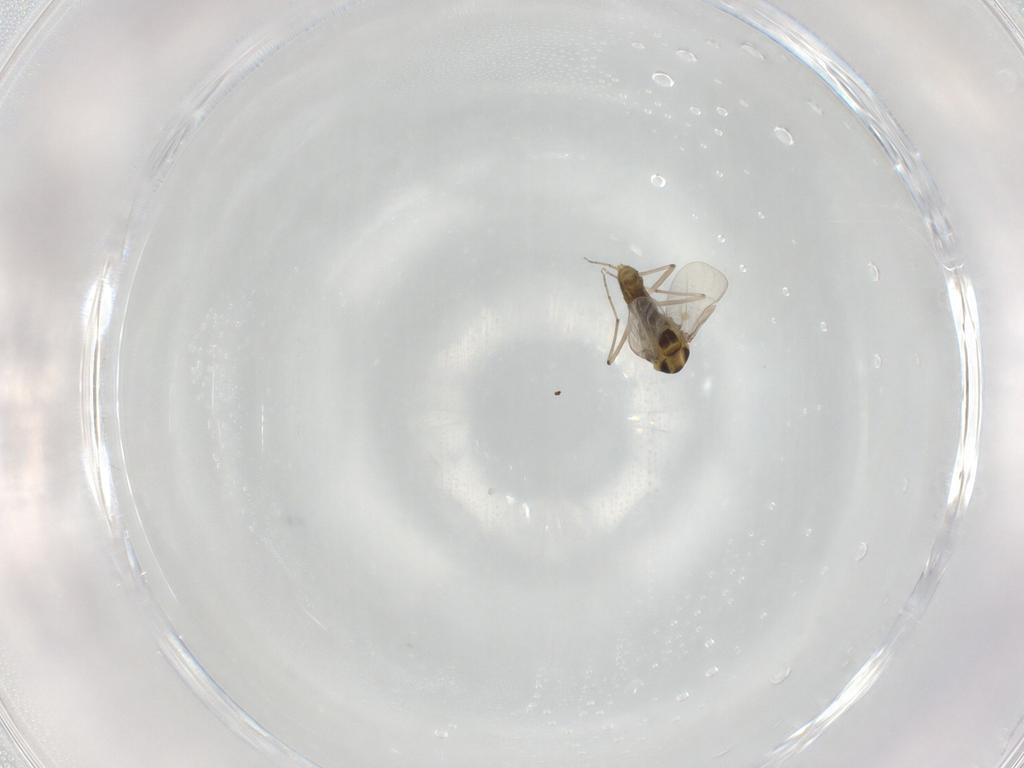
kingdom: Animalia
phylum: Arthropoda
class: Insecta
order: Diptera
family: Chironomidae
